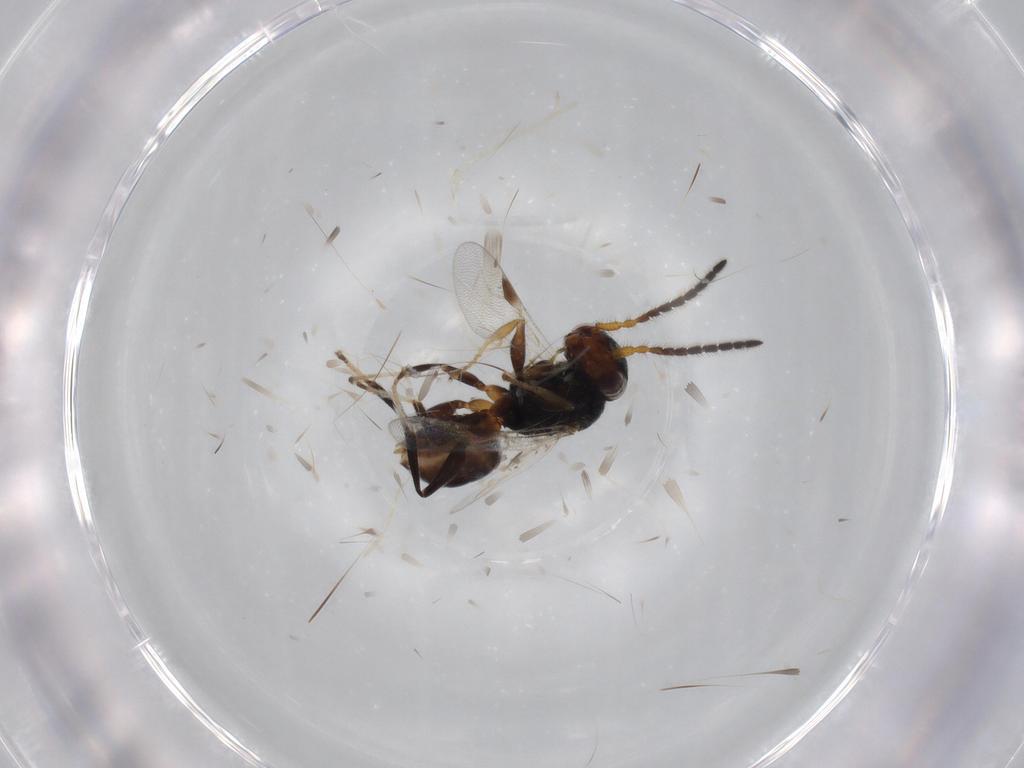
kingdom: Animalia
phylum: Arthropoda
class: Insecta
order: Hymenoptera
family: Dryinidae
